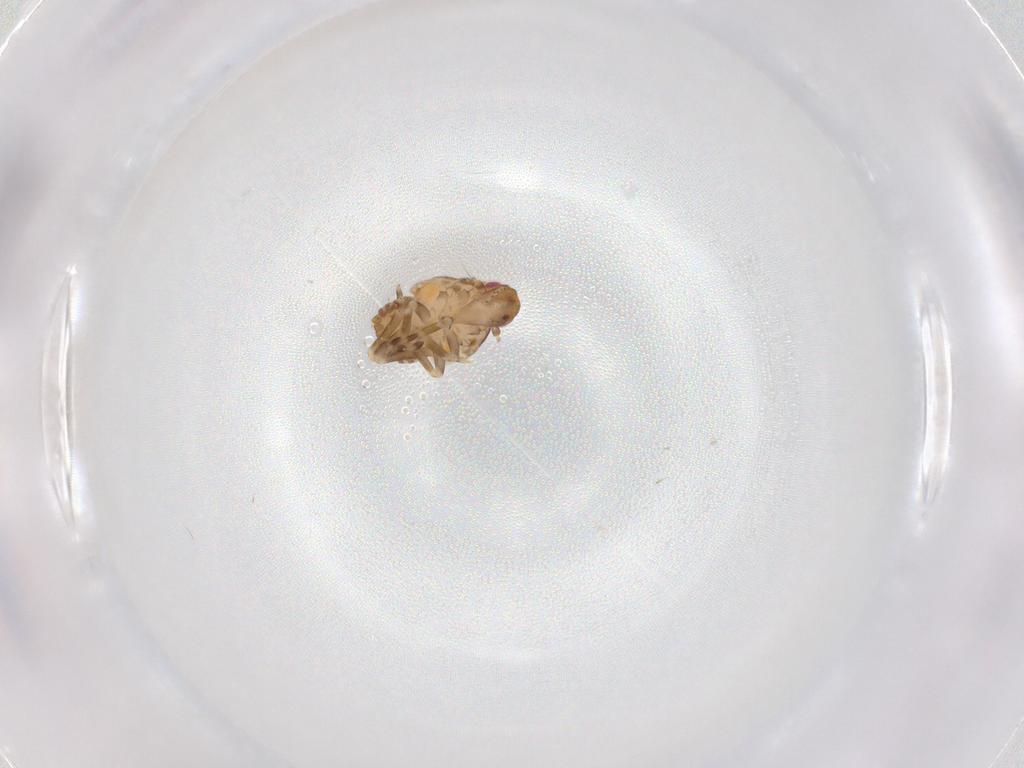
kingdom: Animalia
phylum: Arthropoda
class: Insecta
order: Hemiptera
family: Flatidae
